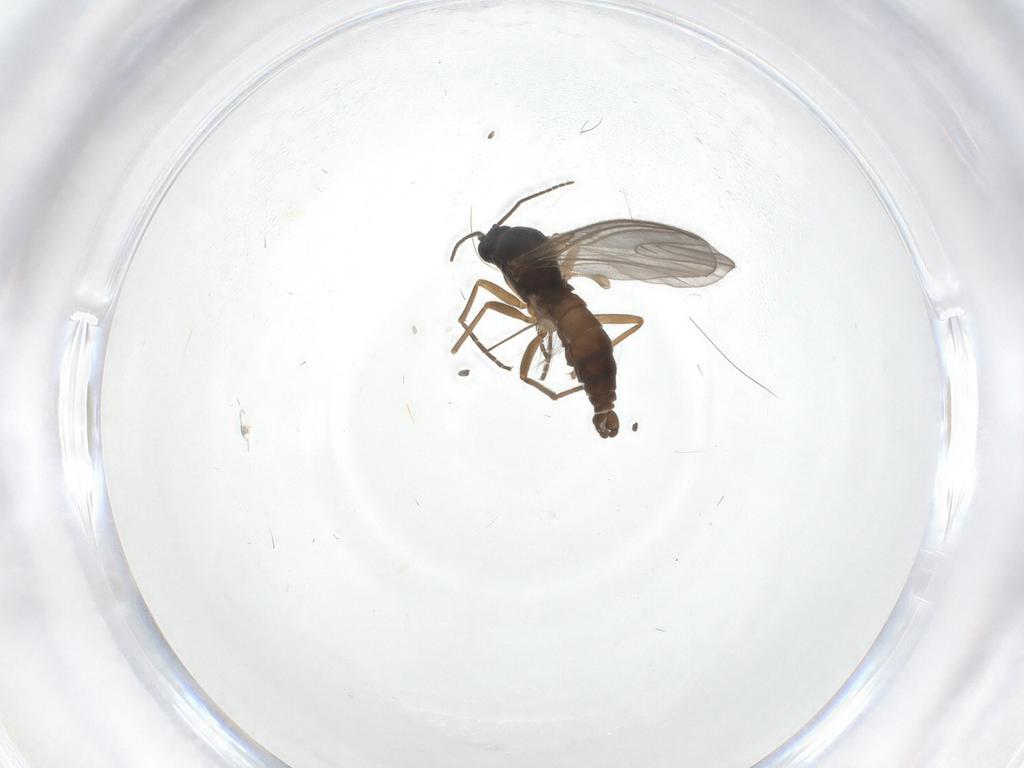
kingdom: Animalia
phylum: Arthropoda
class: Insecta
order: Diptera
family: Sciaridae
